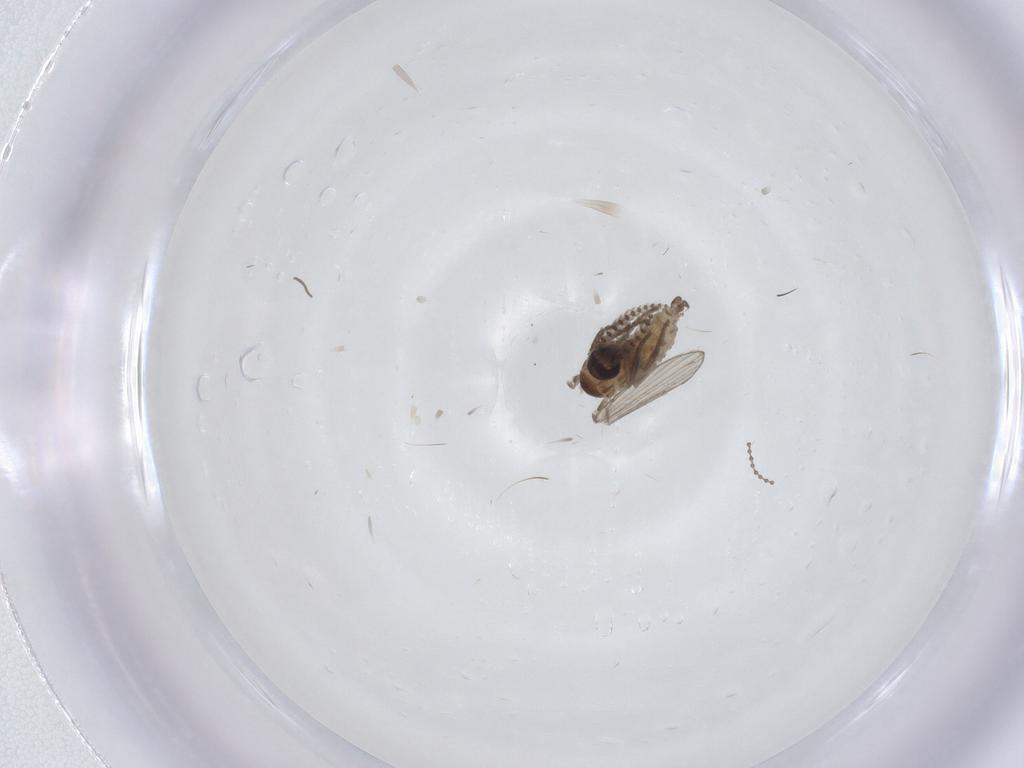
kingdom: Animalia
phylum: Arthropoda
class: Insecta
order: Diptera
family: Psychodidae
